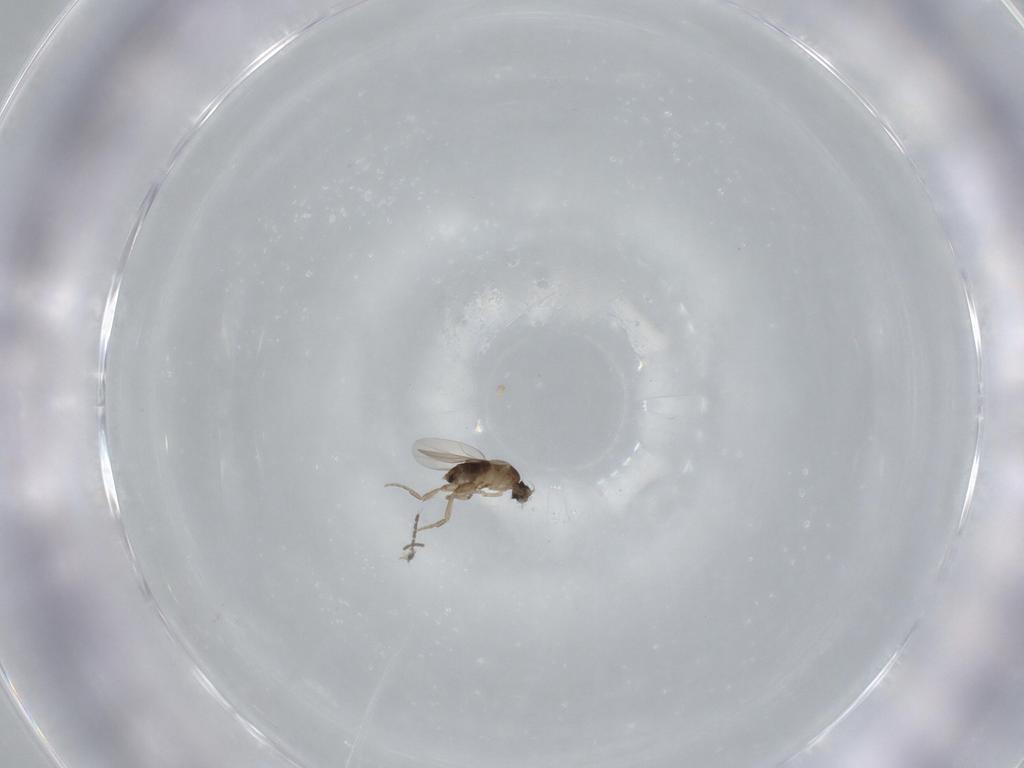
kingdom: Animalia
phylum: Arthropoda
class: Insecta
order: Diptera
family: Phoridae
